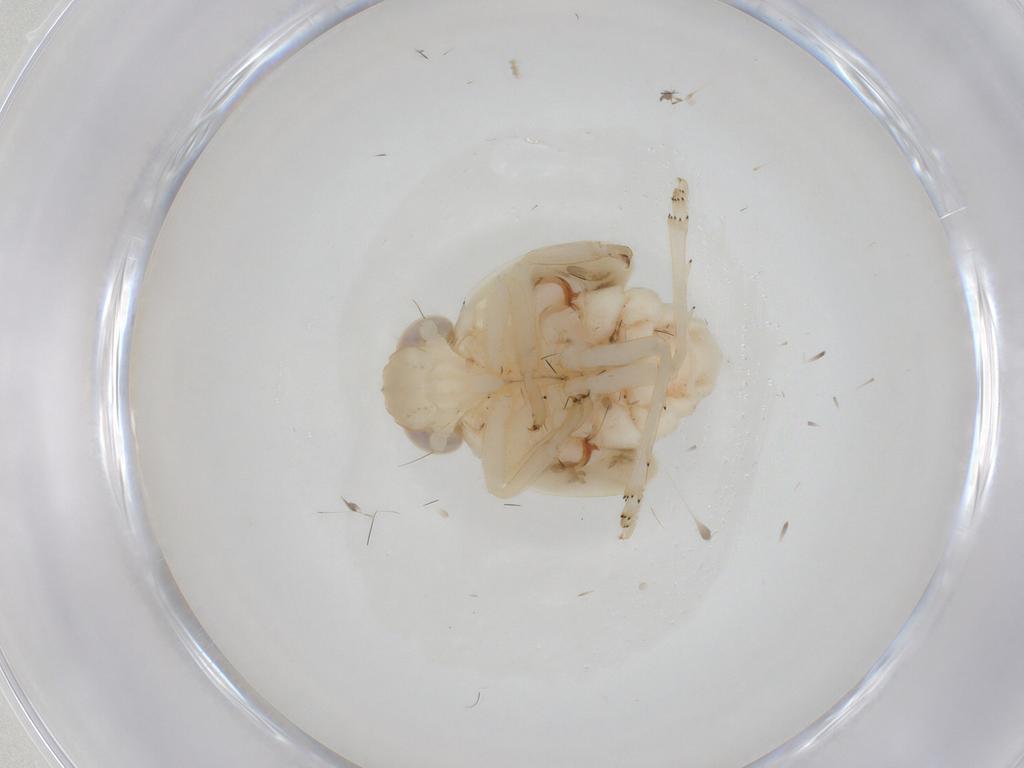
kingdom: Animalia
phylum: Arthropoda
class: Insecta
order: Hemiptera
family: Nogodinidae
